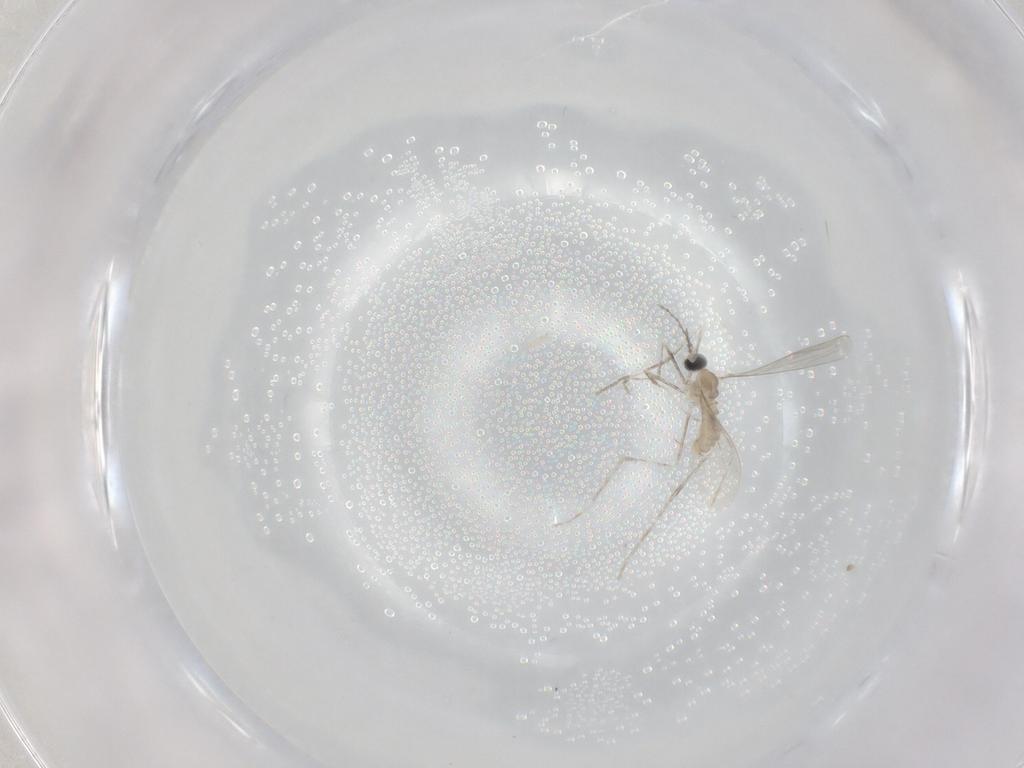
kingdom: Animalia
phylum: Arthropoda
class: Insecta
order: Diptera
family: Cecidomyiidae
